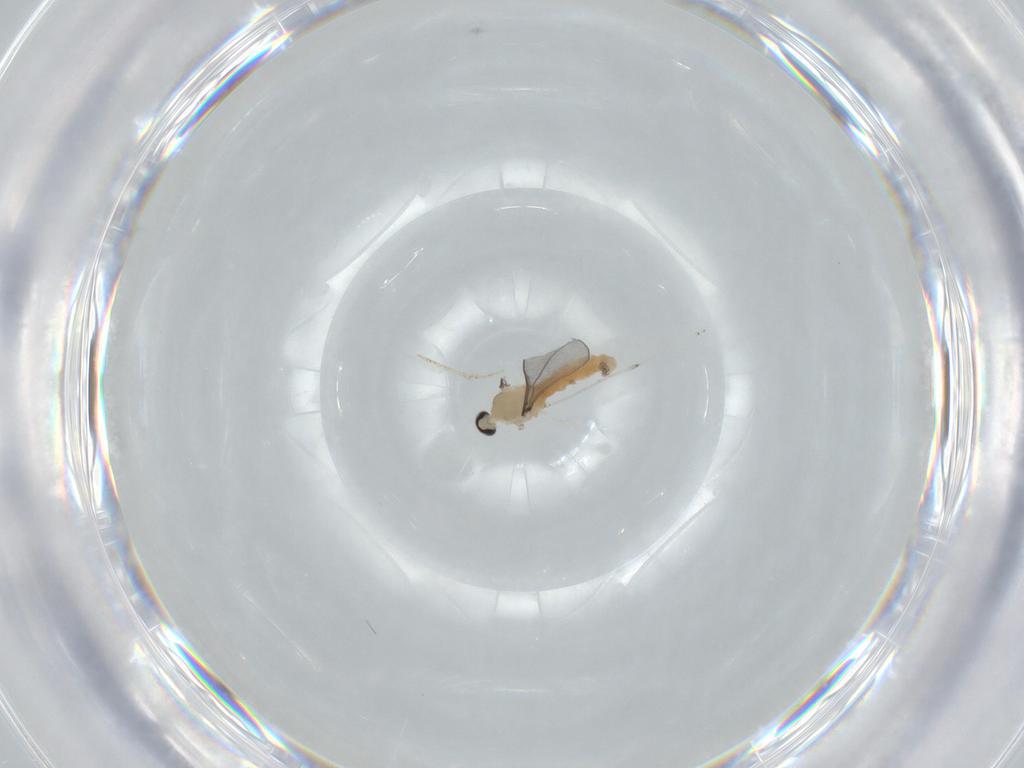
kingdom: Animalia
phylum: Arthropoda
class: Insecta
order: Diptera
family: Cecidomyiidae
